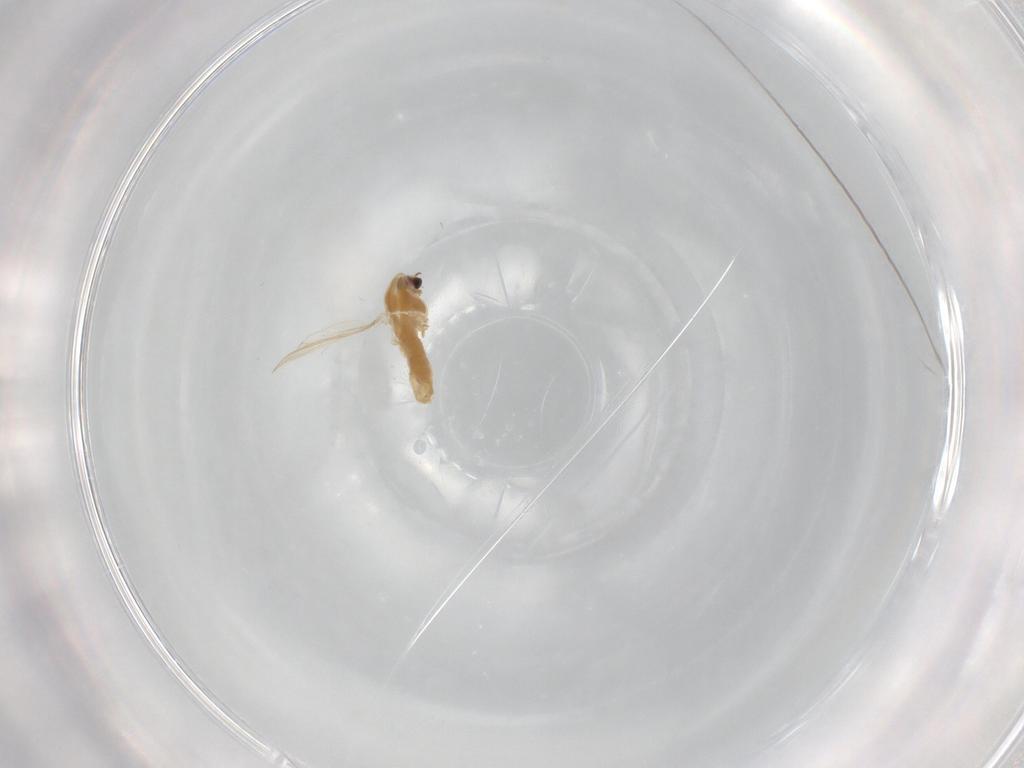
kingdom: Animalia
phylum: Arthropoda
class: Insecta
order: Diptera
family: Chironomidae
